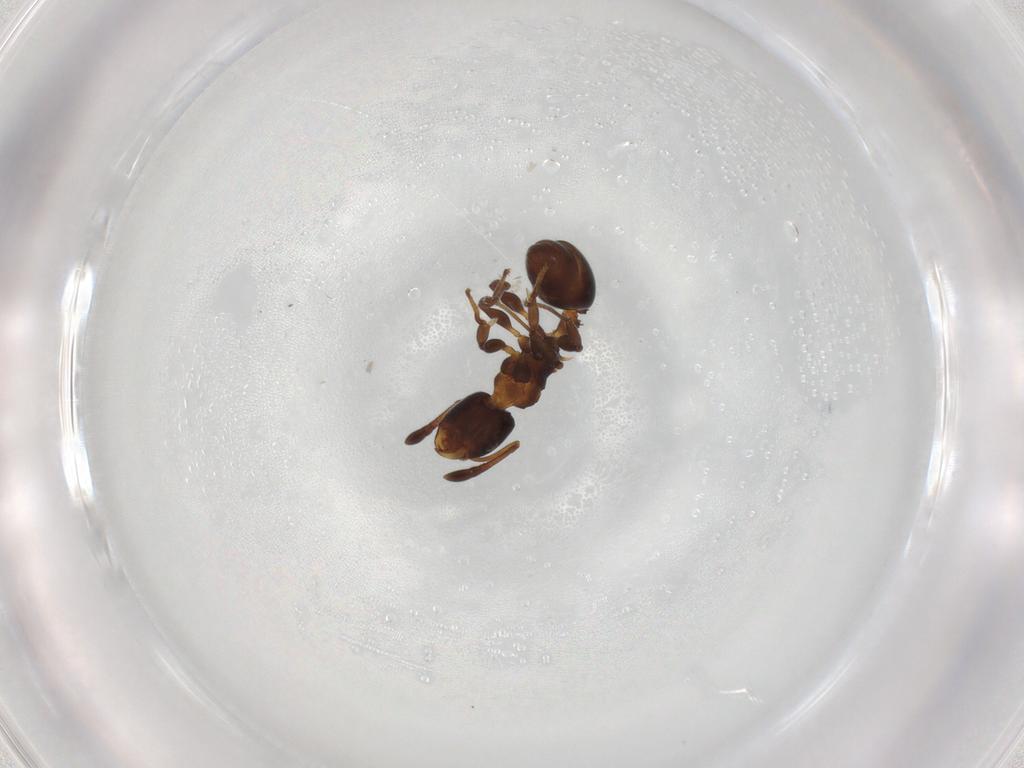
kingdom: Animalia
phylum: Arthropoda
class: Insecta
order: Hymenoptera
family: Formicidae
